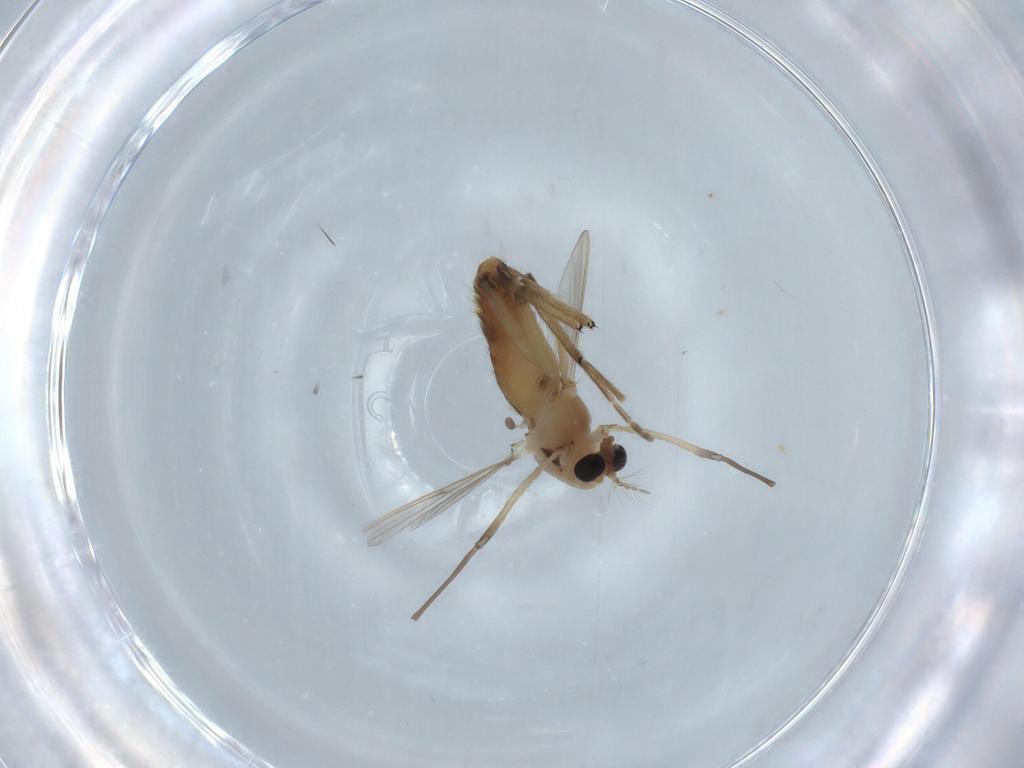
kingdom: Animalia
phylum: Arthropoda
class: Insecta
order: Diptera
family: Chironomidae
